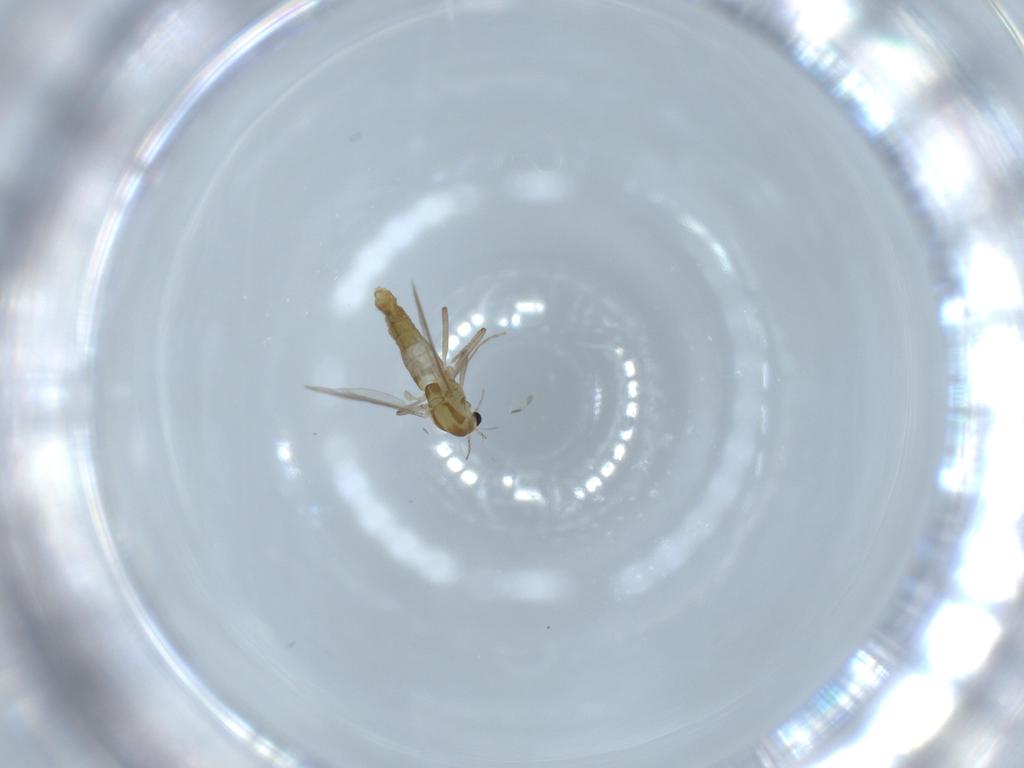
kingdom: Animalia
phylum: Arthropoda
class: Insecta
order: Diptera
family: Chironomidae
